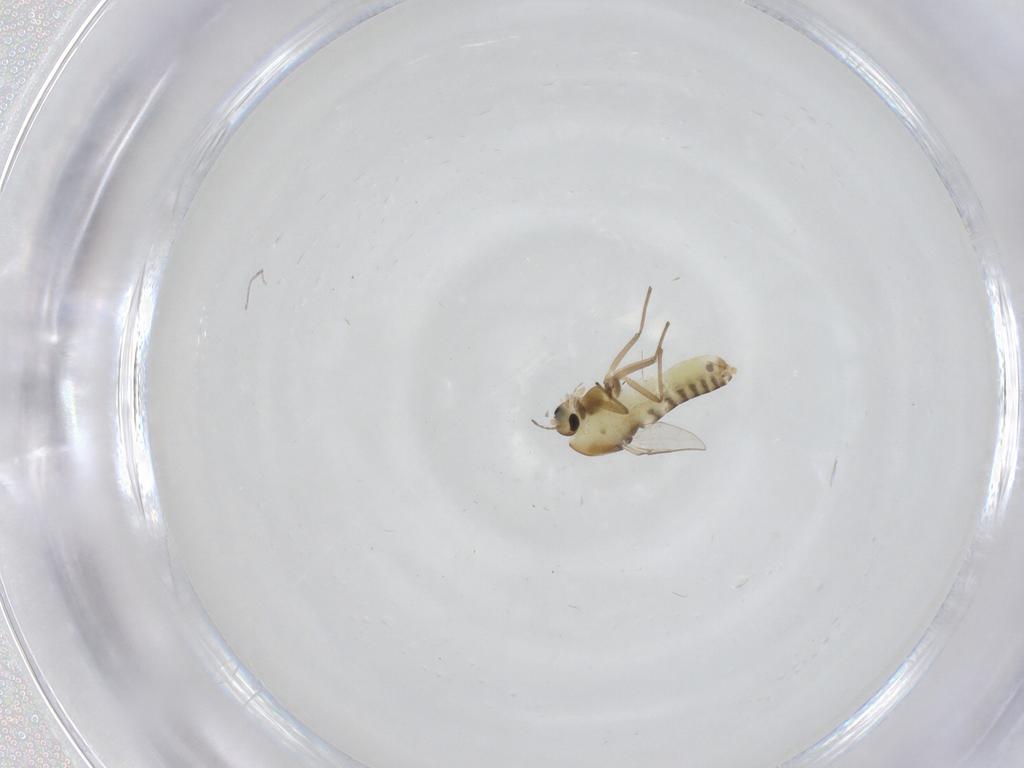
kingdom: Animalia
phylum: Arthropoda
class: Insecta
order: Diptera
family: Chironomidae
